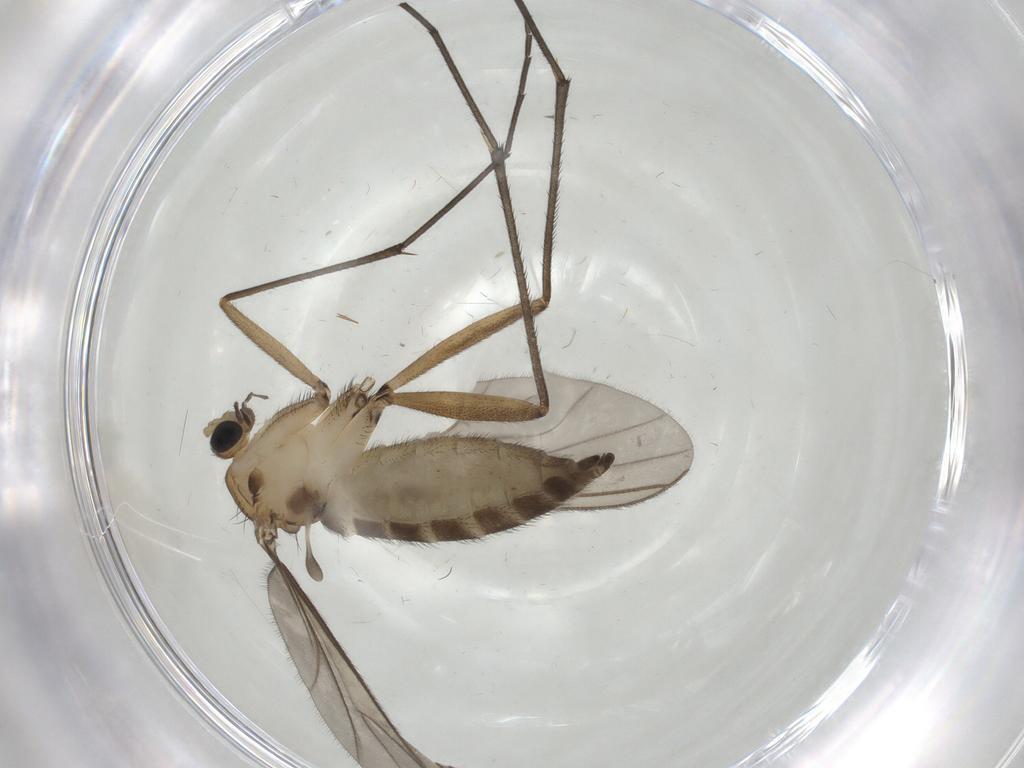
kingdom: Animalia
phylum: Arthropoda
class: Insecta
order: Diptera
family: Sciaridae
